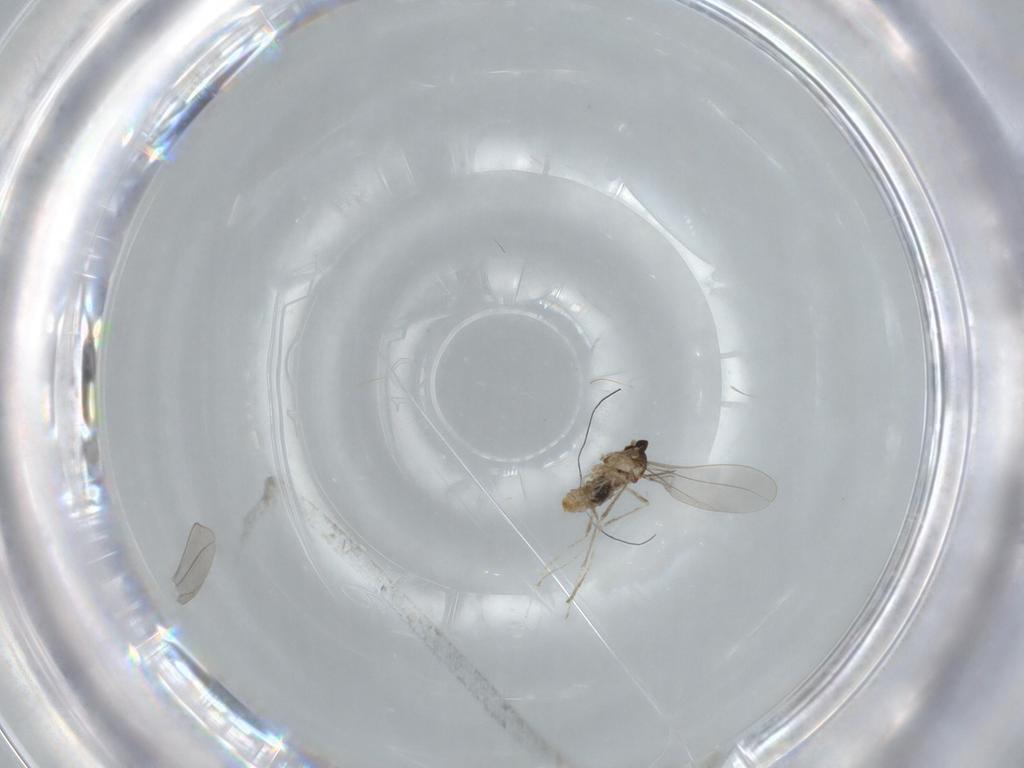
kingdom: Animalia
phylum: Arthropoda
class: Insecta
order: Diptera
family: Cecidomyiidae
